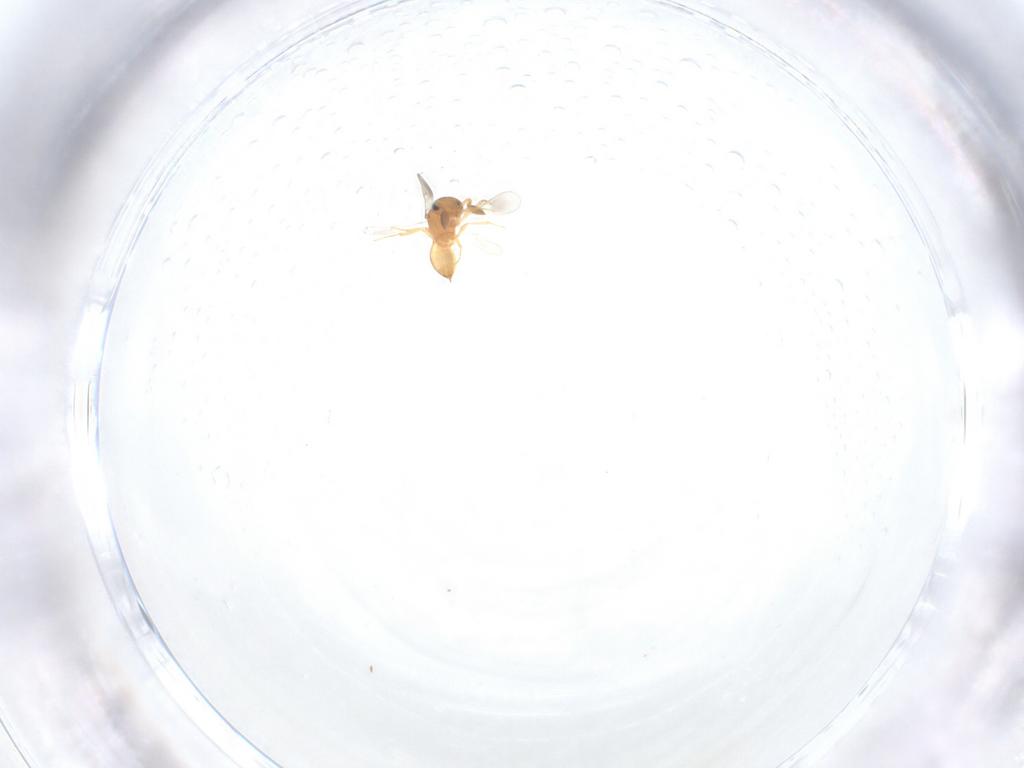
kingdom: Animalia
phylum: Arthropoda
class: Insecta
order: Hymenoptera
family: Scelionidae
